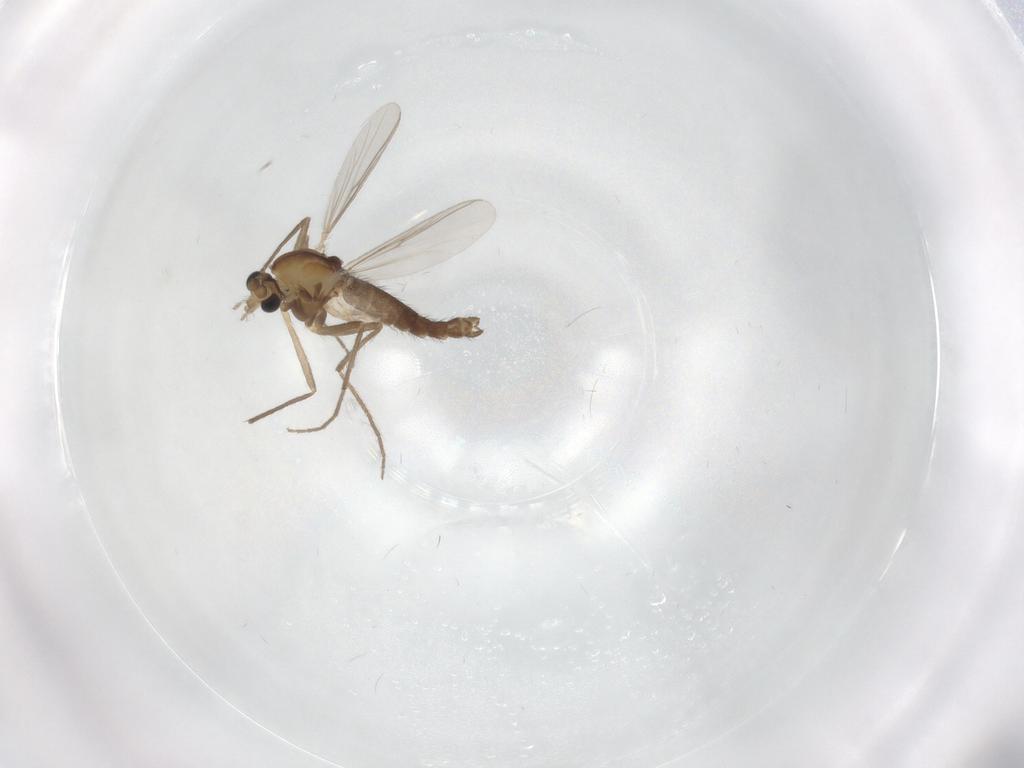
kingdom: Animalia
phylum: Arthropoda
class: Insecta
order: Diptera
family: Chironomidae
